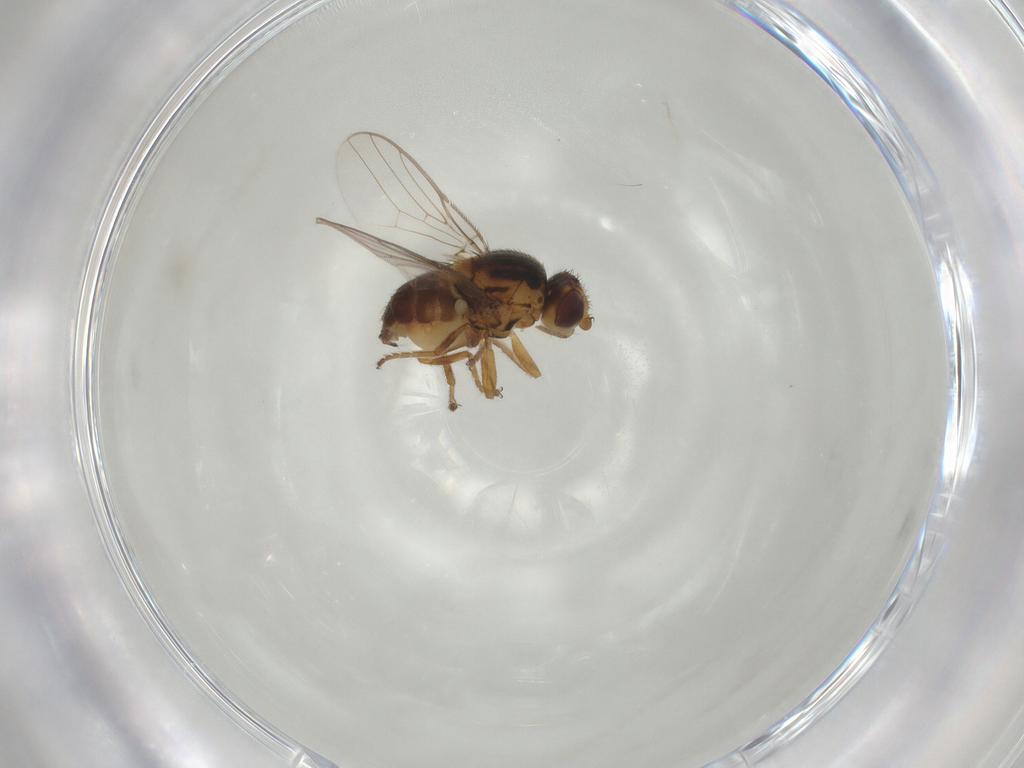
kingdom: Animalia
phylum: Arthropoda
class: Insecta
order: Diptera
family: Chloropidae
